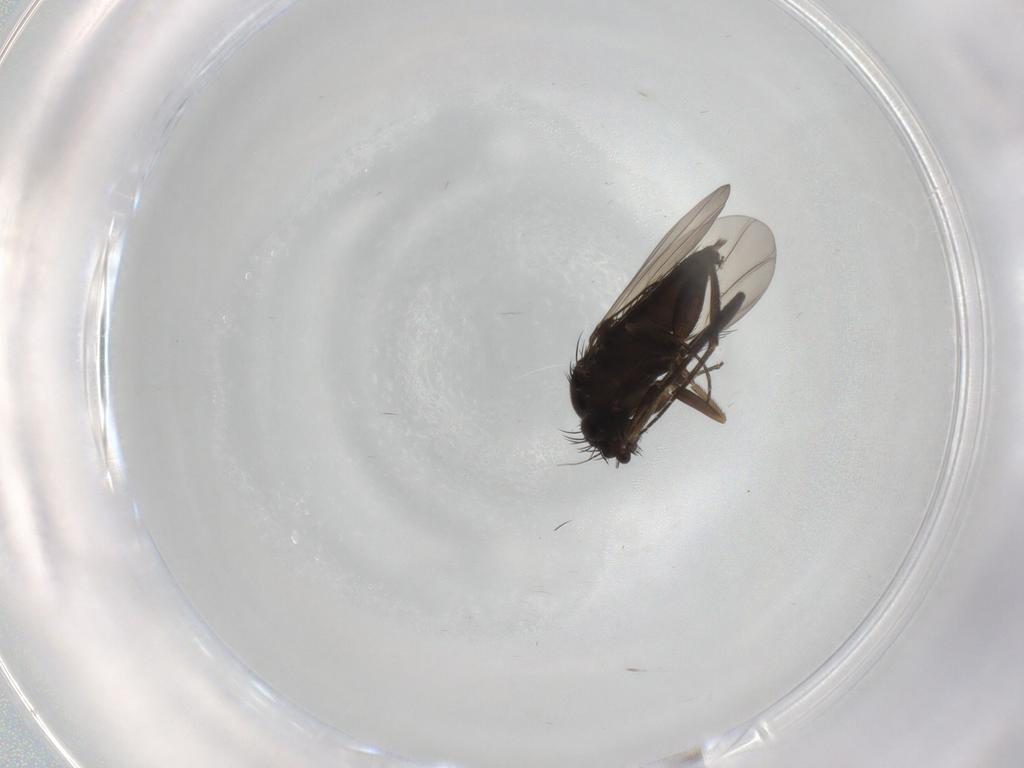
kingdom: Animalia
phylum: Arthropoda
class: Insecta
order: Diptera
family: Phoridae
